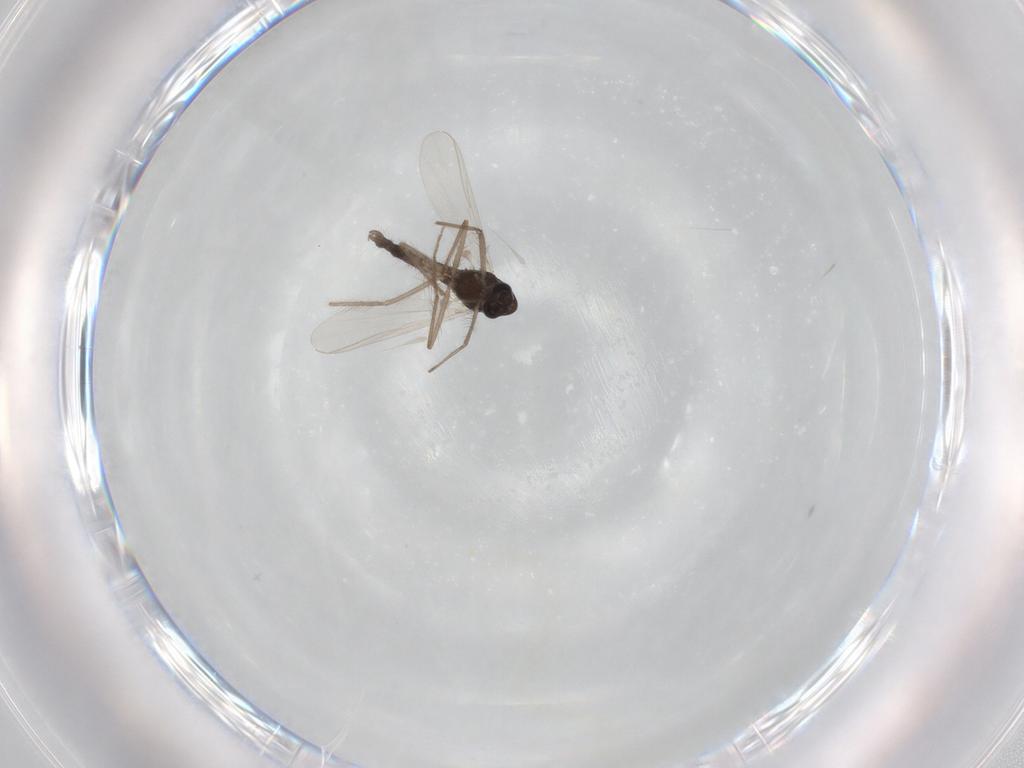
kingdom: Animalia
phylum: Arthropoda
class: Insecta
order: Diptera
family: Chironomidae
